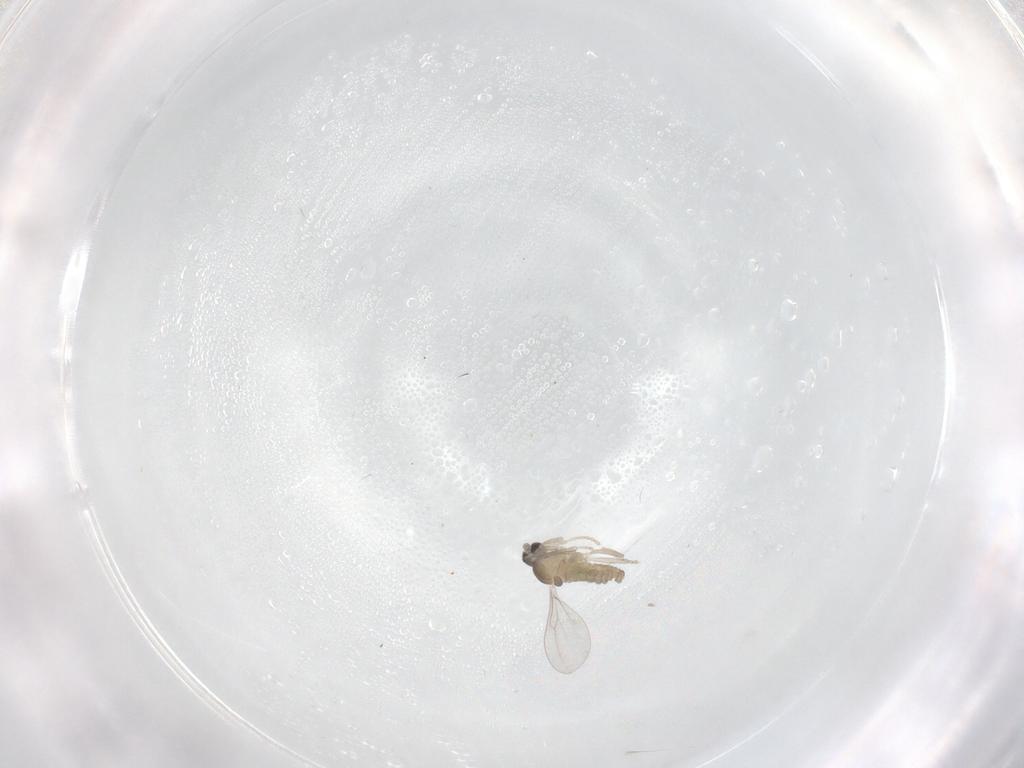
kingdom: Animalia
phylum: Arthropoda
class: Insecta
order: Diptera
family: Cecidomyiidae
